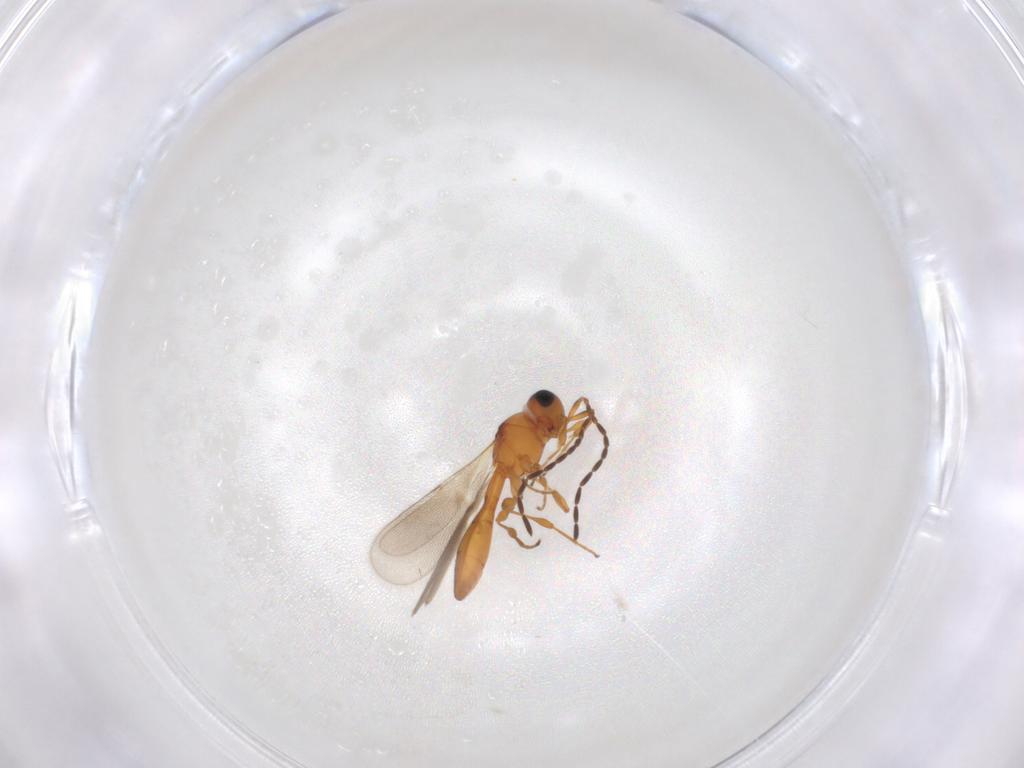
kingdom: Animalia
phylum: Arthropoda
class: Insecta
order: Hymenoptera
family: Scelionidae
